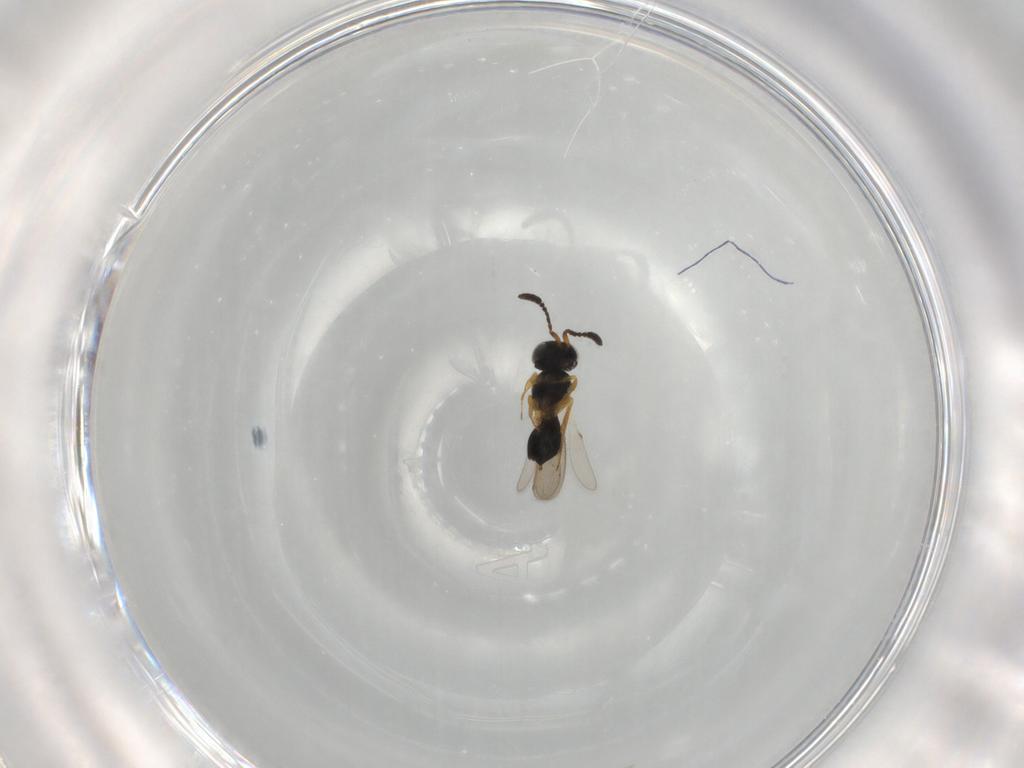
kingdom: Animalia
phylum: Arthropoda
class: Insecta
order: Hymenoptera
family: Scelionidae
